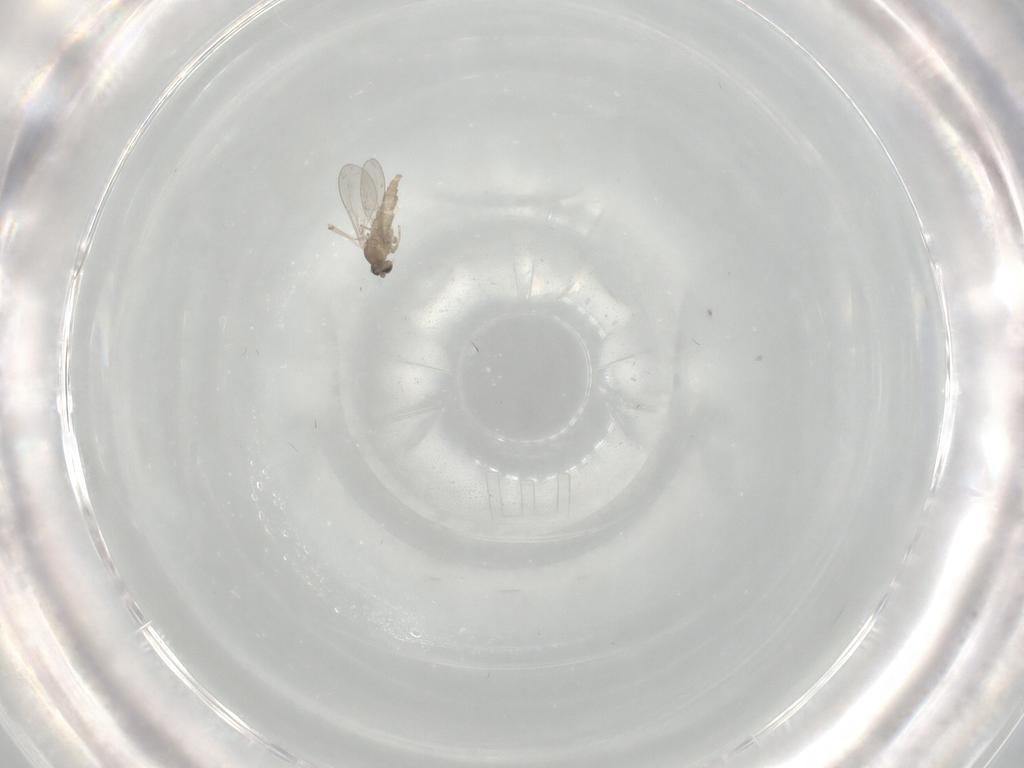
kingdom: Animalia
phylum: Arthropoda
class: Insecta
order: Diptera
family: Cecidomyiidae
